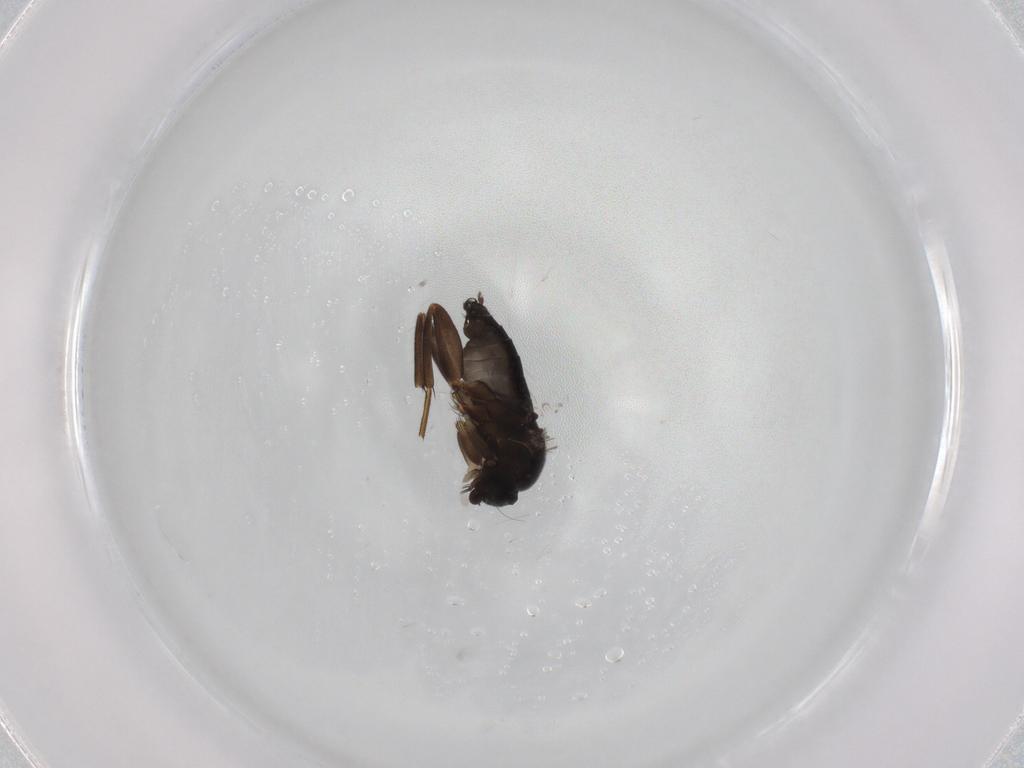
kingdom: Animalia
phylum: Arthropoda
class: Insecta
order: Diptera
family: Phoridae
